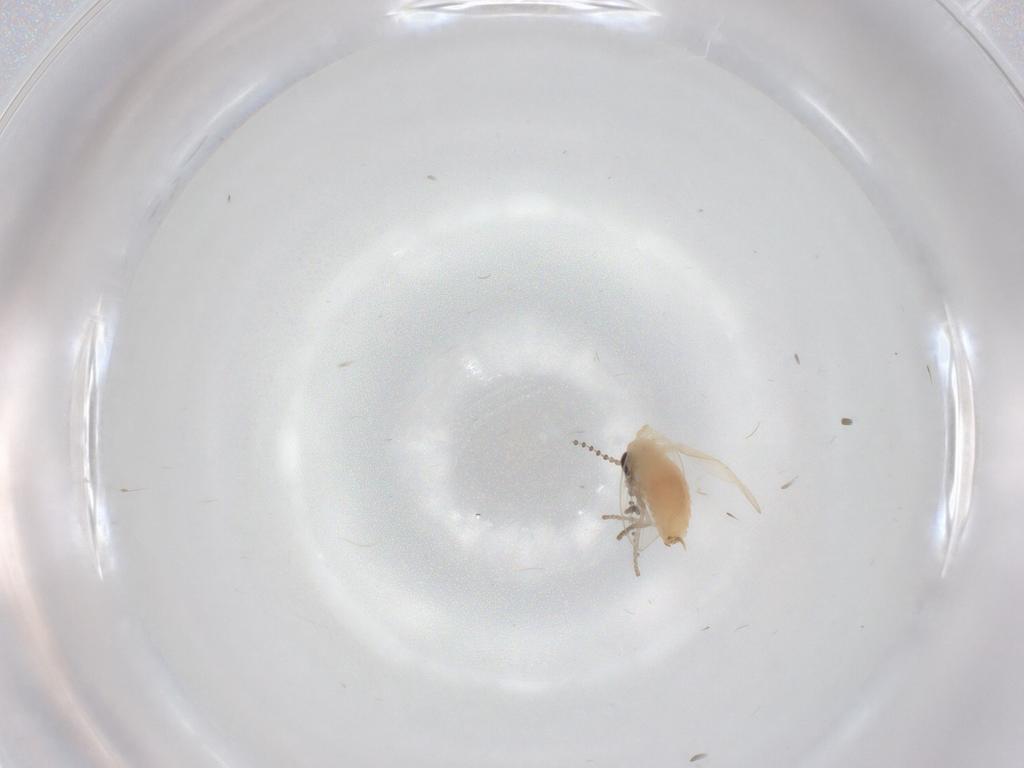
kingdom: Animalia
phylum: Arthropoda
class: Insecta
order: Diptera
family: Psychodidae
